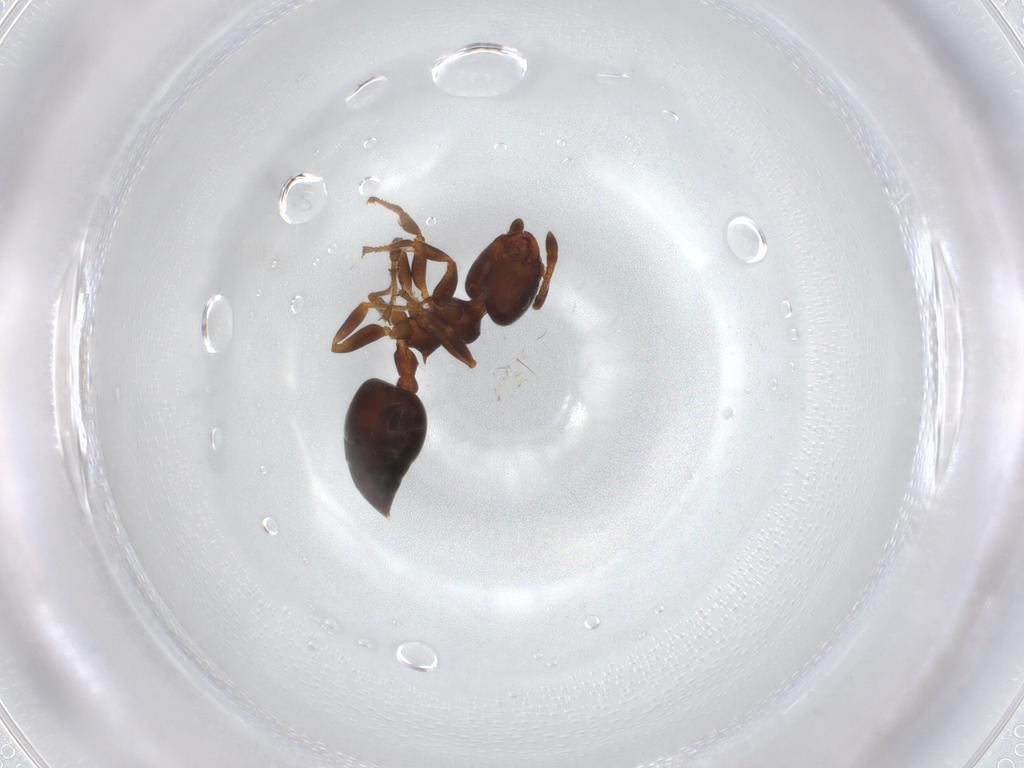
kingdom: Animalia
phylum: Arthropoda
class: Insecta
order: Hymenoptera
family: Formicidae
